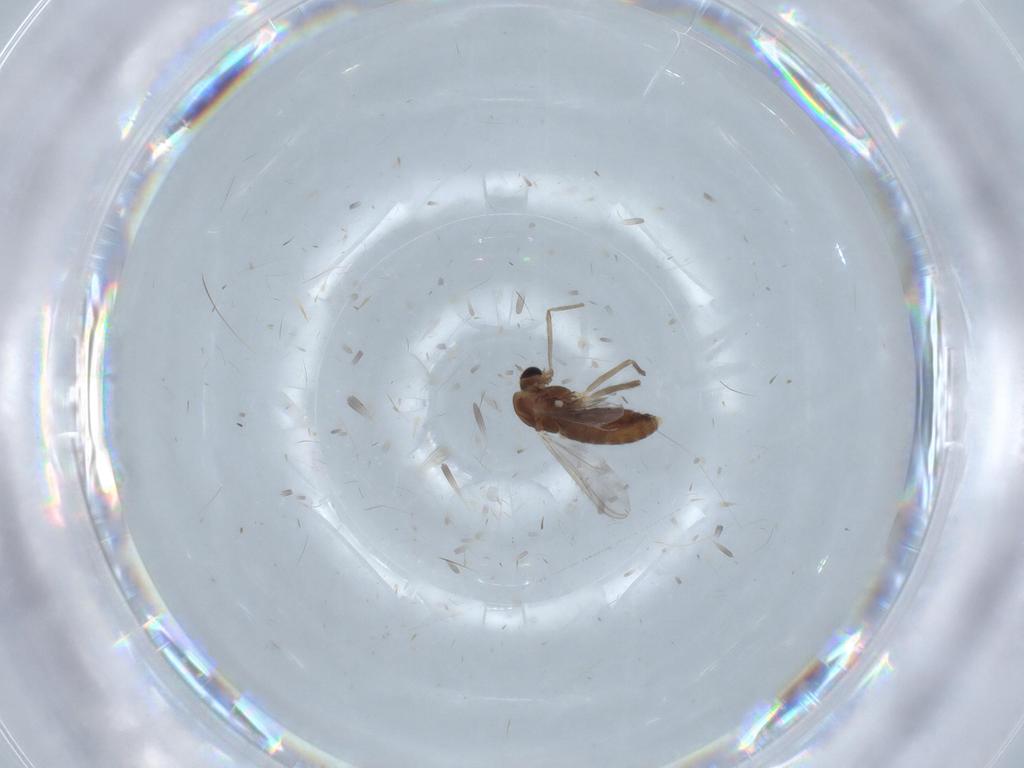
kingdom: Animalia
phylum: Arthropoda
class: Insecta
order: Diptera
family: Chironomidae
